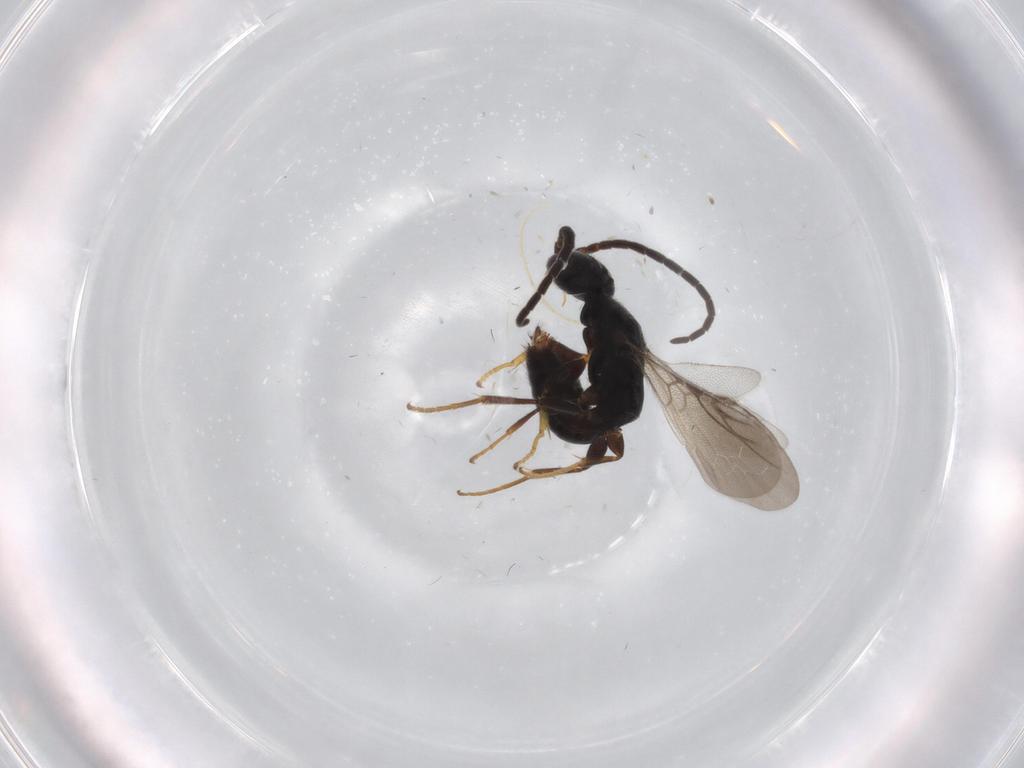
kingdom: Animalia
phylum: Arthropoda
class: Insecta
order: Hymenoptera
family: Bethylidae
